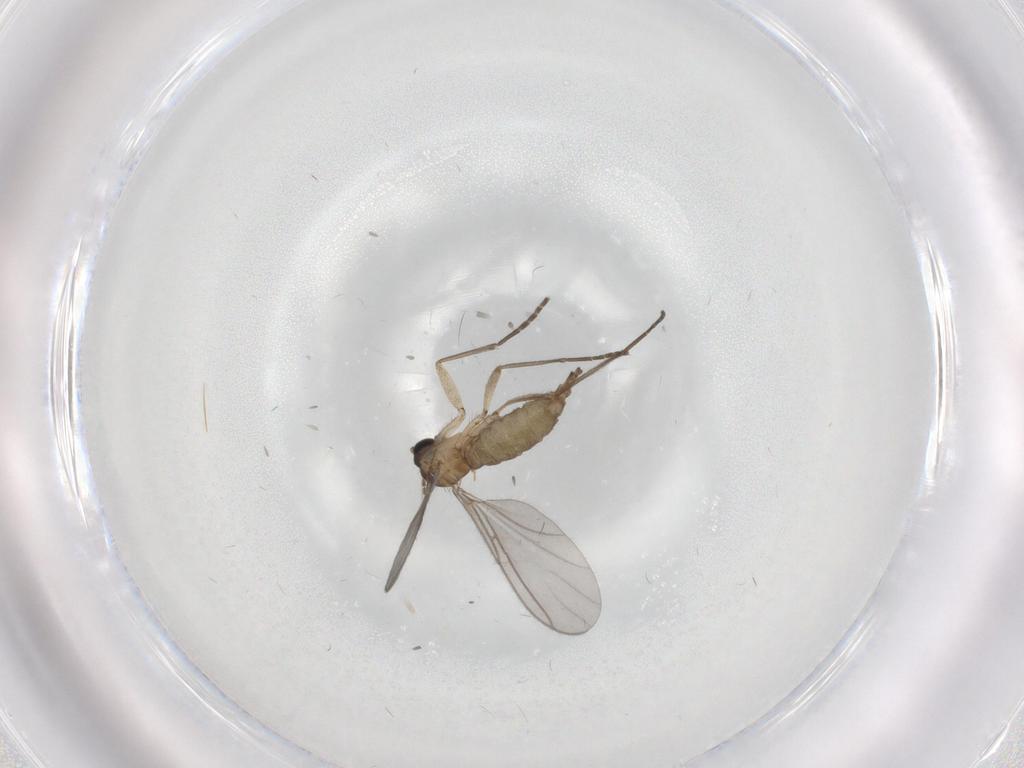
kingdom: Animalia
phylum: Arthropoda
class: Insecta
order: Diptera
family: Sciaridae
